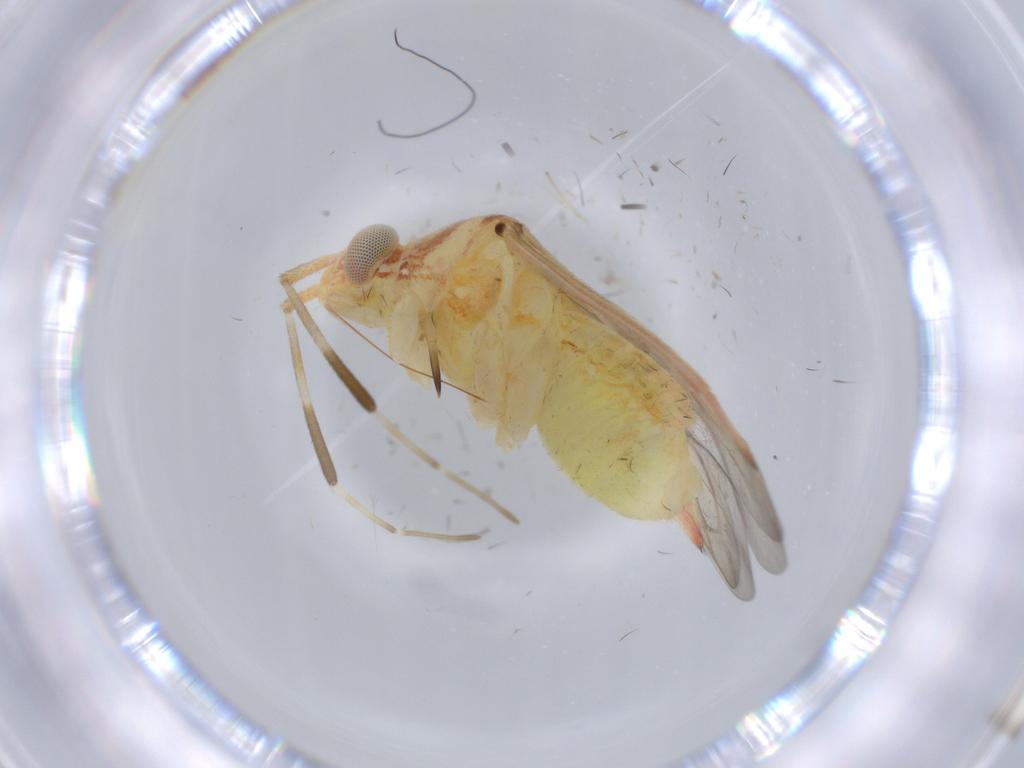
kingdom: Animalia
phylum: Arthropoda
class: Insecta
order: Hemiptera
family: Miridae
